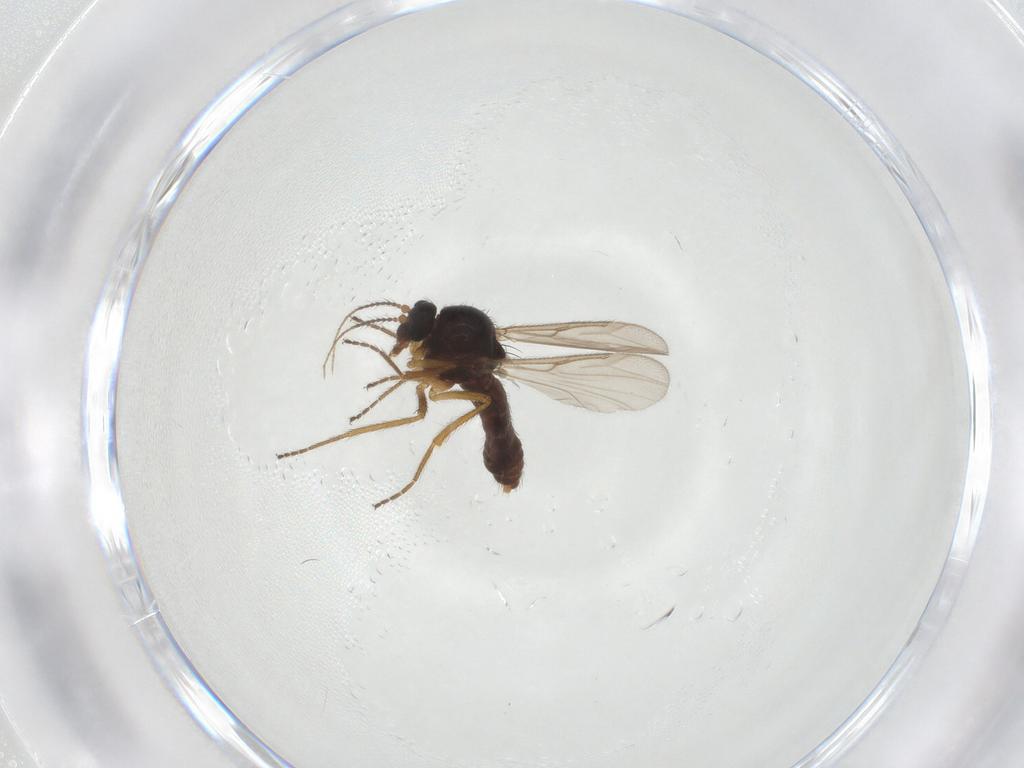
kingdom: Animalia
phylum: Arthropoda
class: Insecta
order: Diptera
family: Ceratopogonidae
